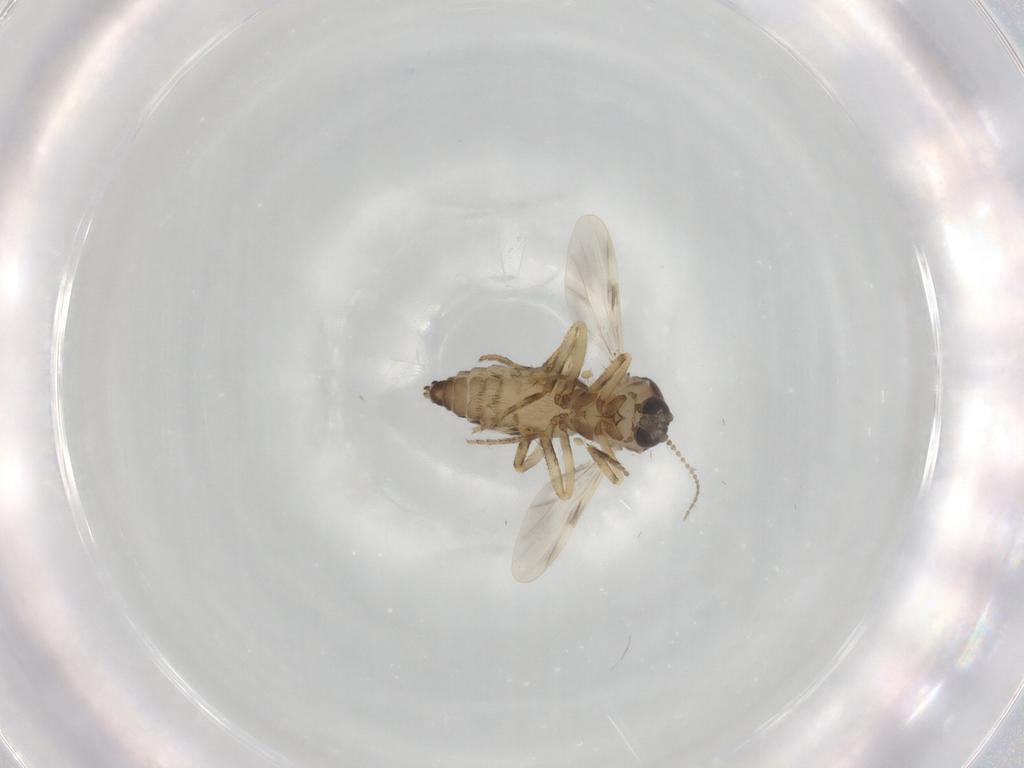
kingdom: Animalia
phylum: Arthropoda
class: Insecta
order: Diptera
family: Ceratopogonidae
